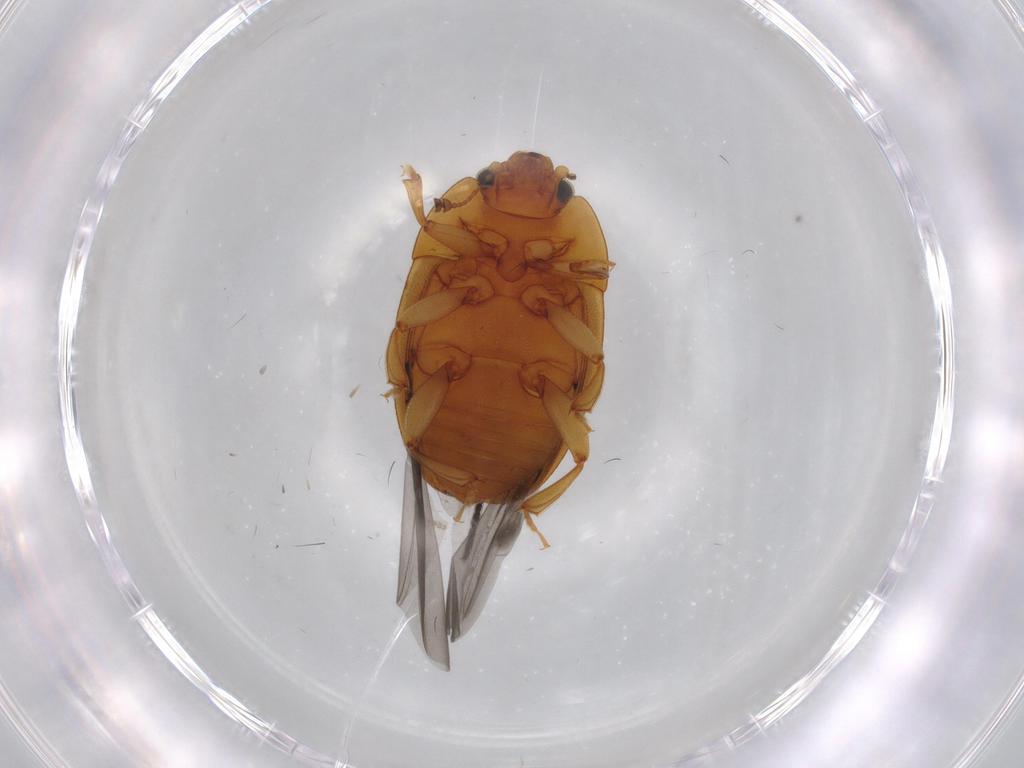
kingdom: Animalia
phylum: Arthropoda
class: Insecta
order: Coleoptera
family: Nitidulidae
